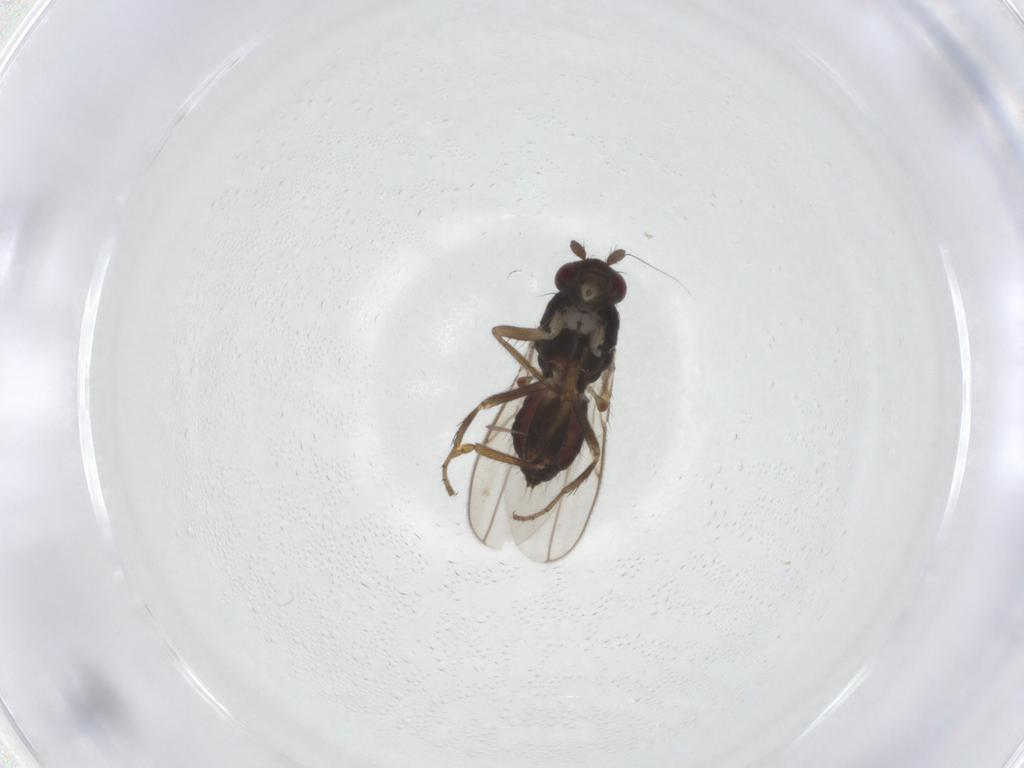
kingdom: Animalia
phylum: Arthropoda
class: Insecta
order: Diptera
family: Sphaeroceridae
